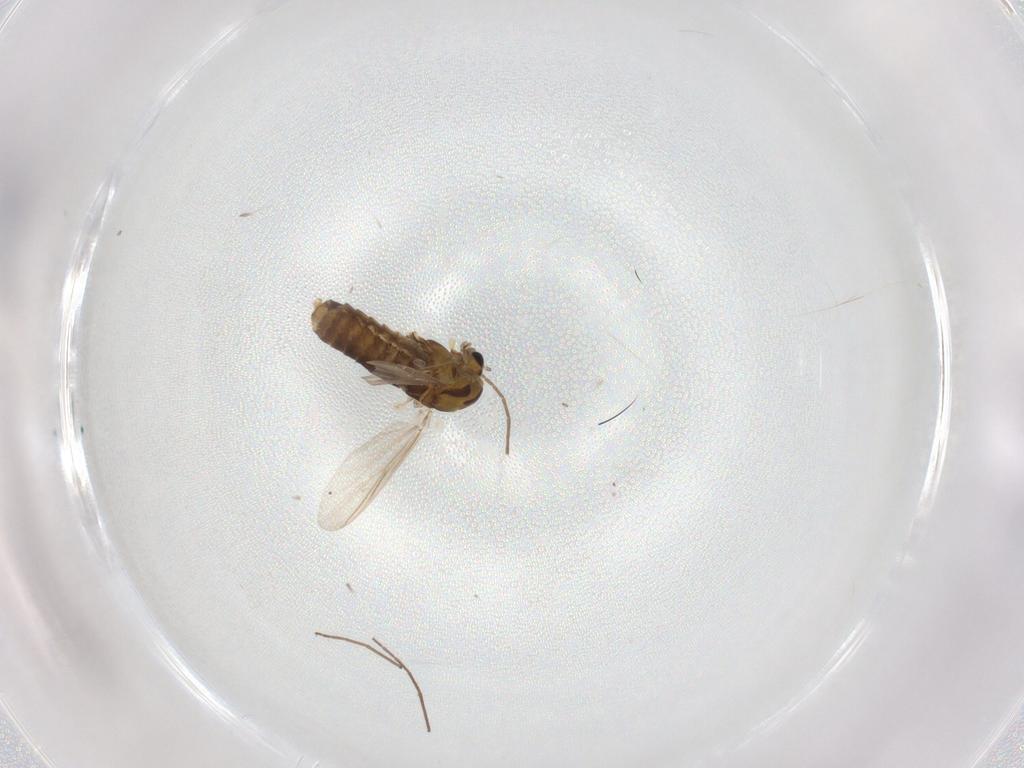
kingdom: Animalia
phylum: Arthropoda
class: Insecta
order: Diptera
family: Chironomidae
